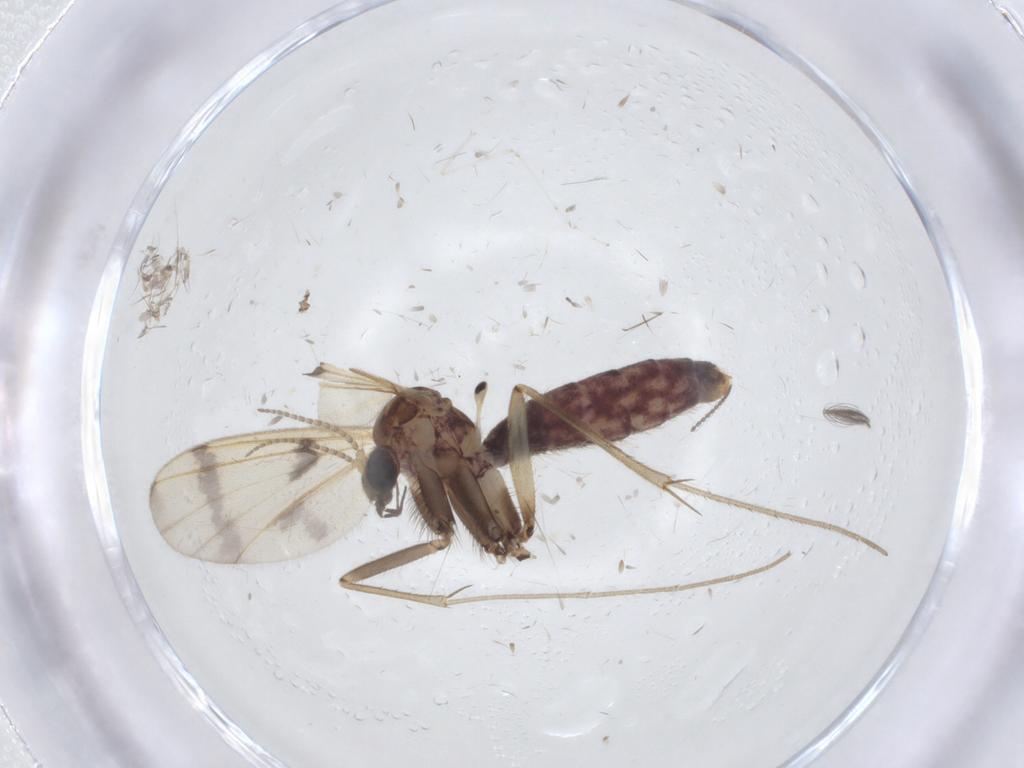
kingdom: Animalia
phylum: Arthropoda
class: Insecta
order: Diptera
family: Mycetophilidae
